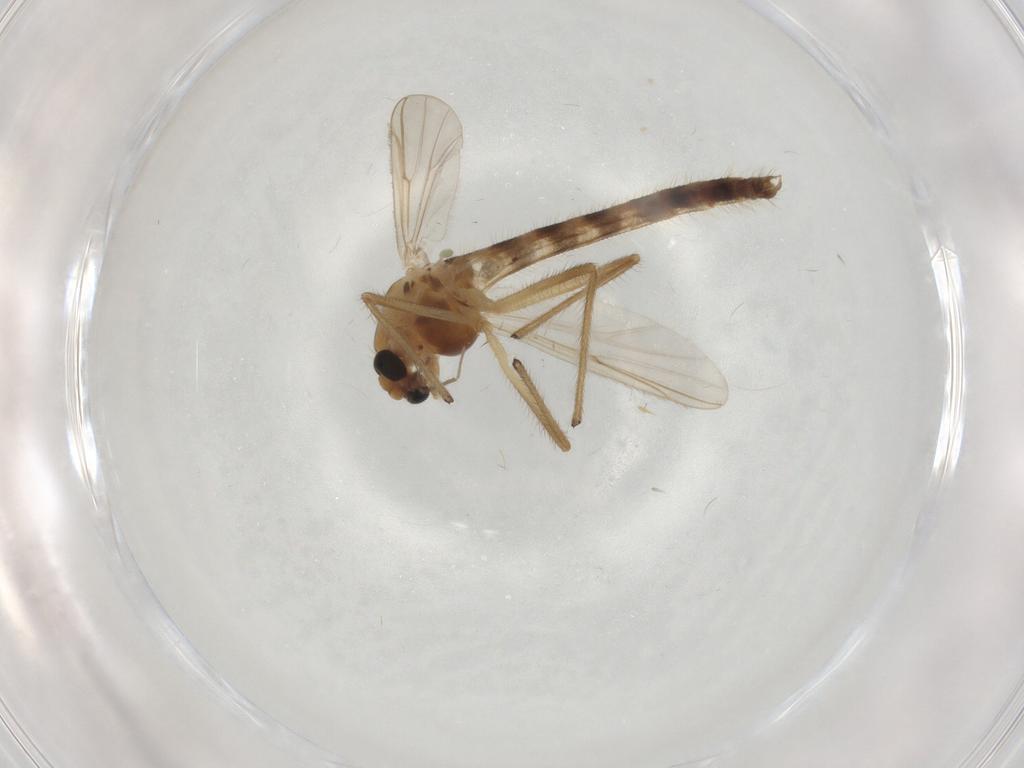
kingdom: Animalia
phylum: Arthropoda
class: Insecta
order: Diptera
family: Chironomidae
